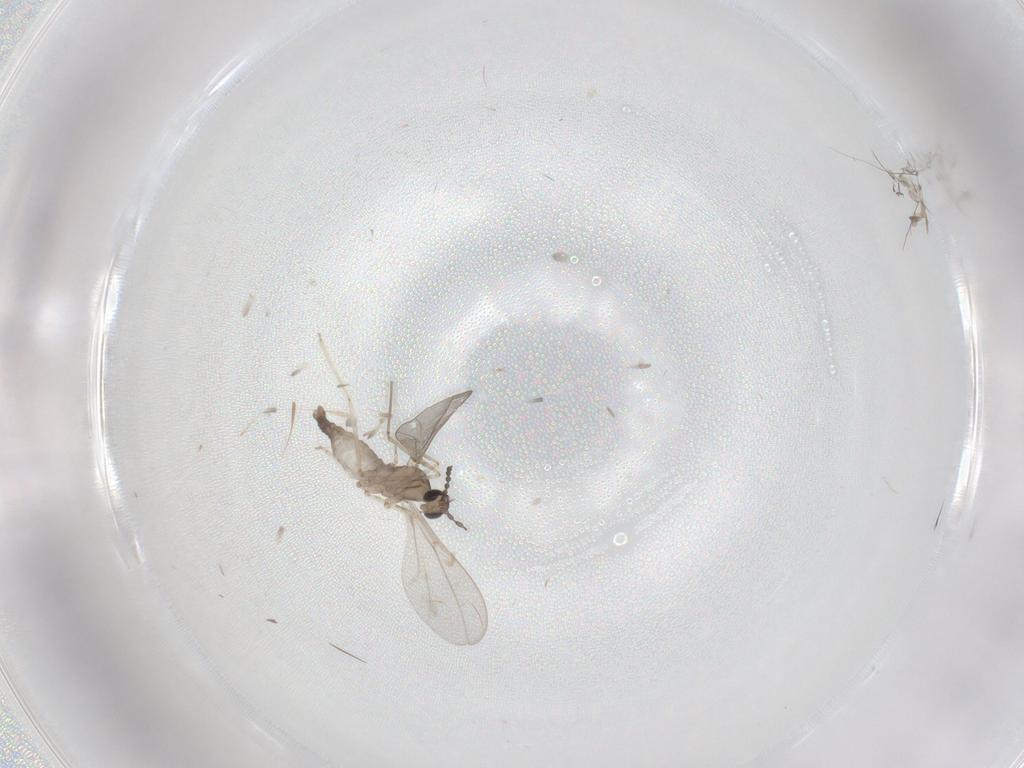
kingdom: Animalia
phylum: Arthropoda
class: Insecta
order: Diptera
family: Cecidomyiidae
